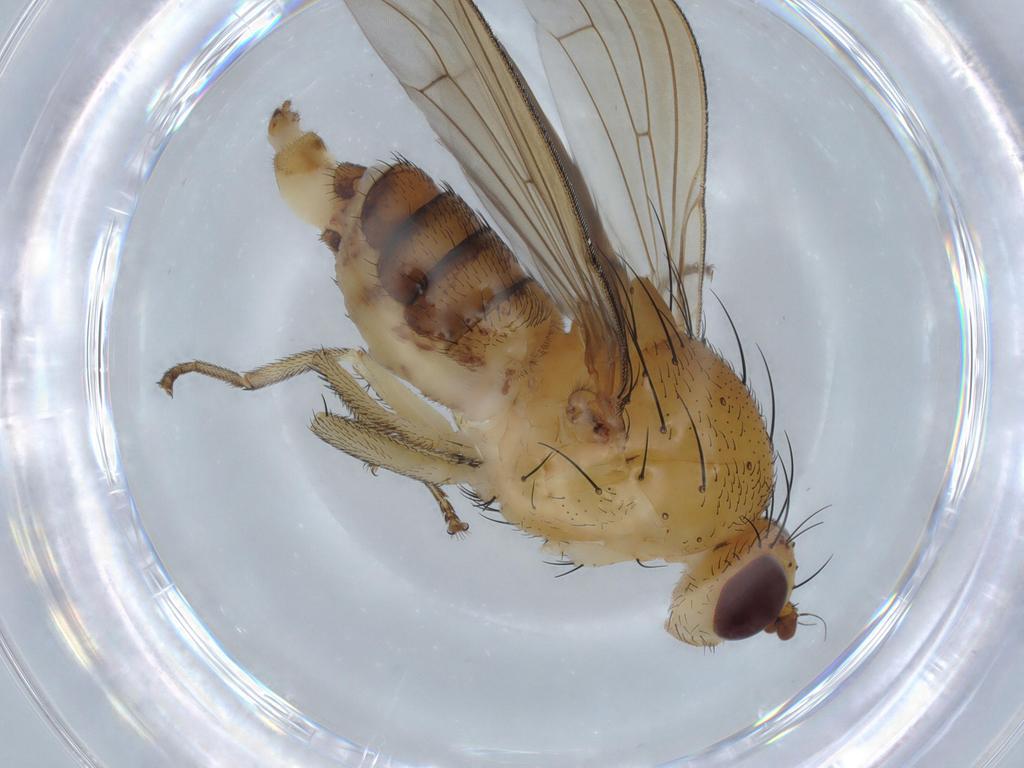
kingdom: Animalia
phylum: Arthropoda
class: Insecta
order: Diptera
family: Lauxaniidae
